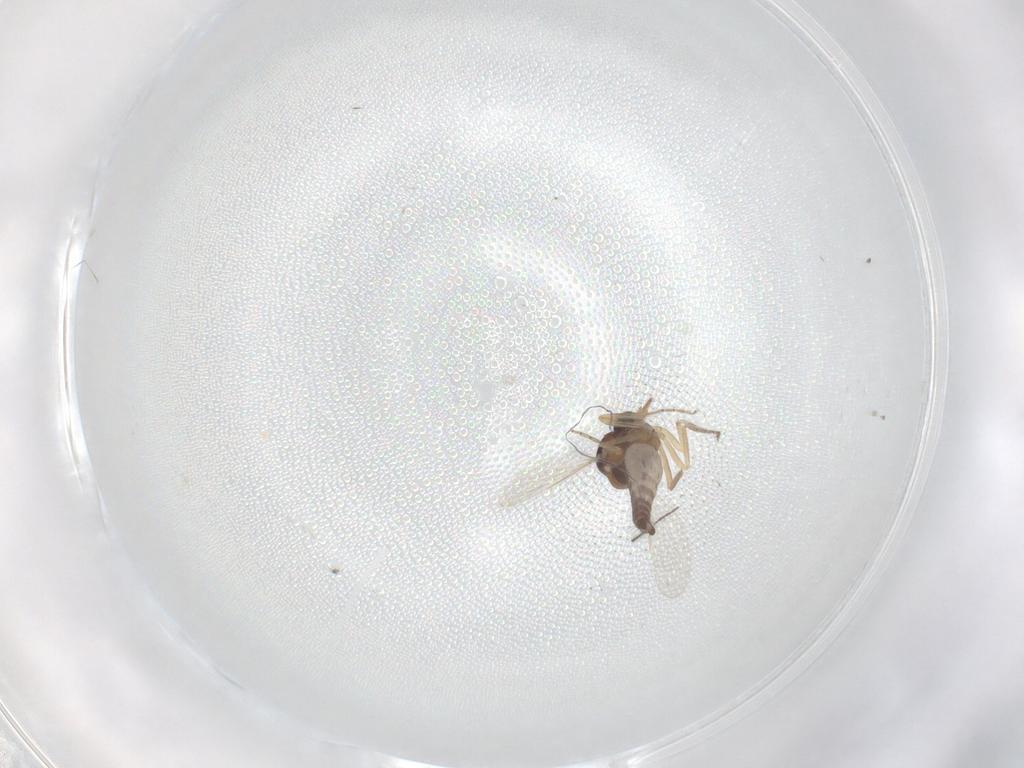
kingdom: Animalia
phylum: Arthropoda
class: Insecta
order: Diptera
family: Ceratopogonidae
